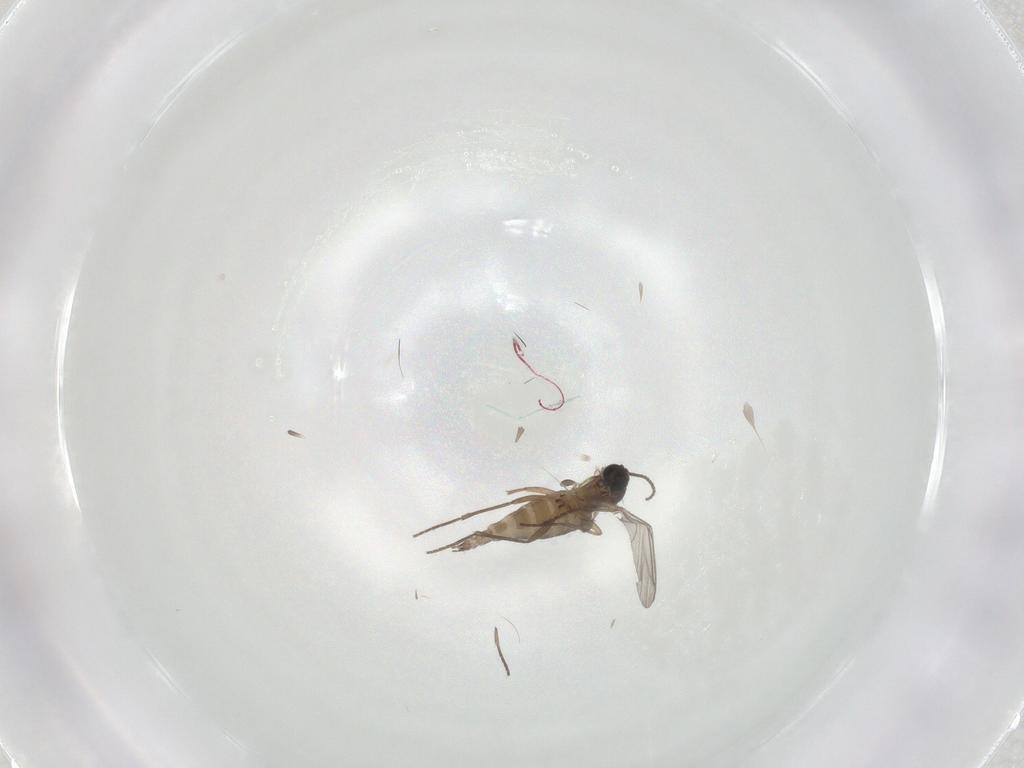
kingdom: Animalia
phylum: Arthropoda
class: Insecta
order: Diptera
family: Sciaridae
